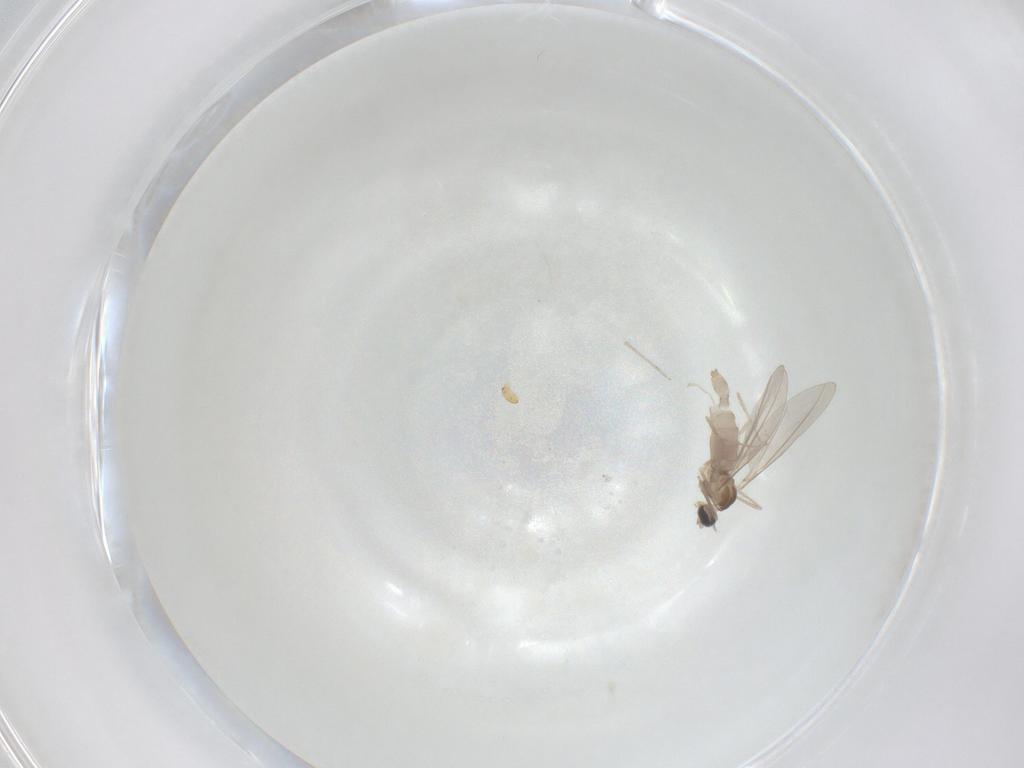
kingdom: Animalia
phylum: Arthropoda
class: Insecta
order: Diptera
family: Cecidomyiidae
